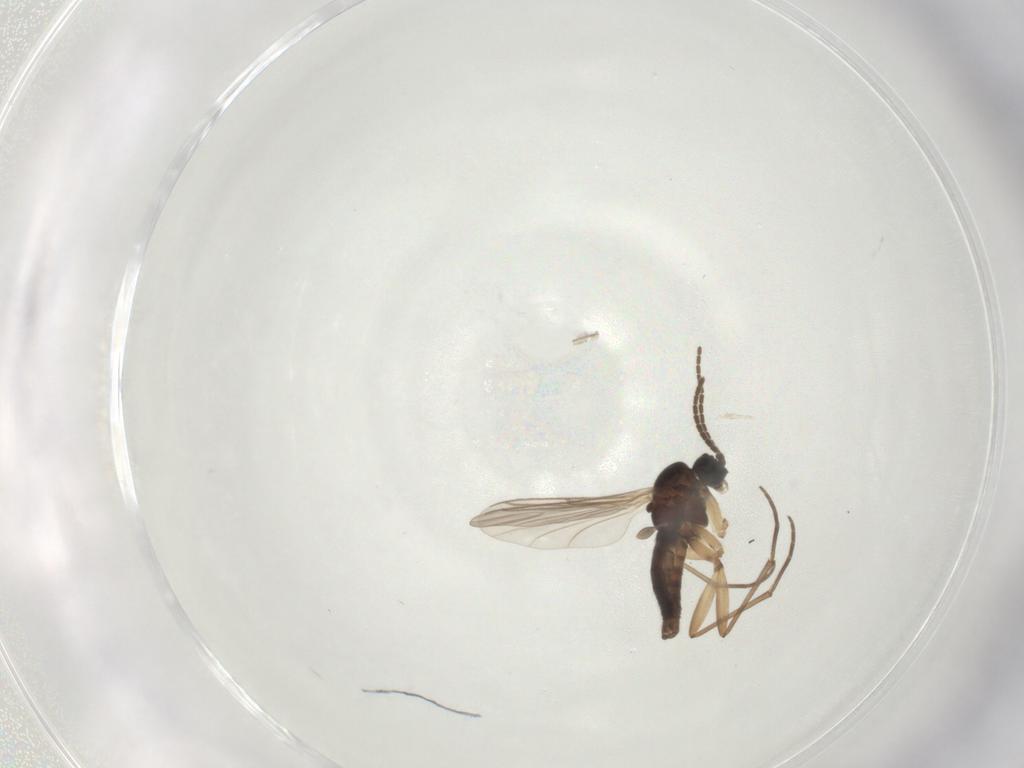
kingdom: Animalia
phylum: Arthropoda
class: Insecta
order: Diptera
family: Sciaridae
